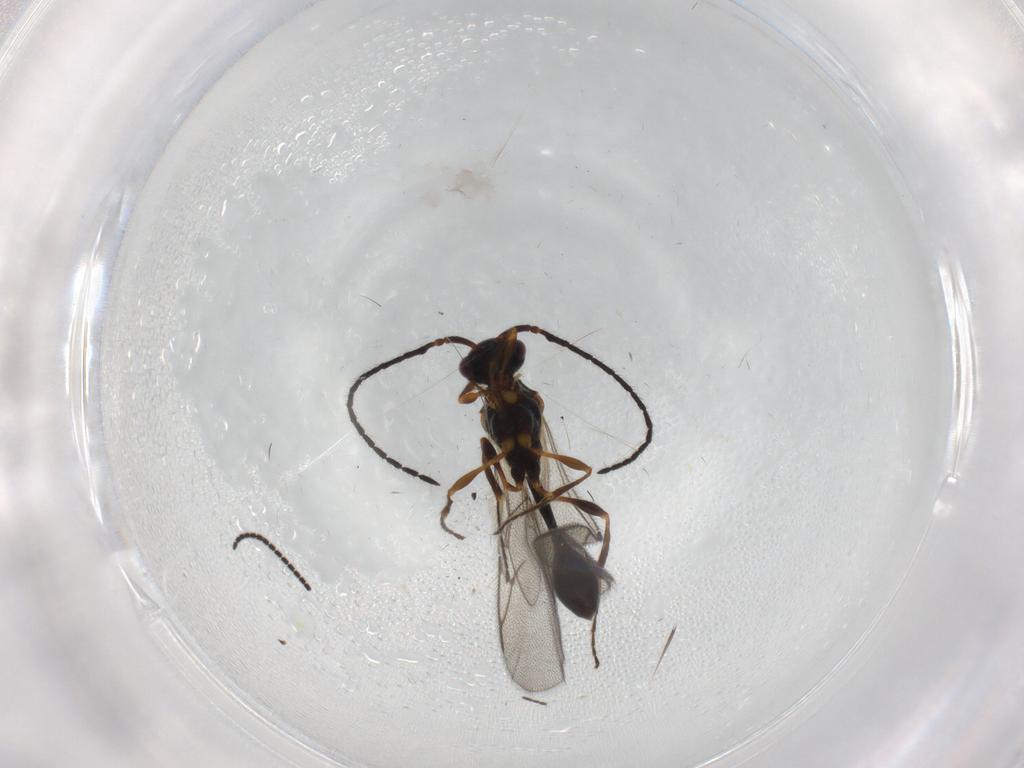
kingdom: Animalia
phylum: Arthropoda
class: Insecta
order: Hymenoptera
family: Diapriidae
